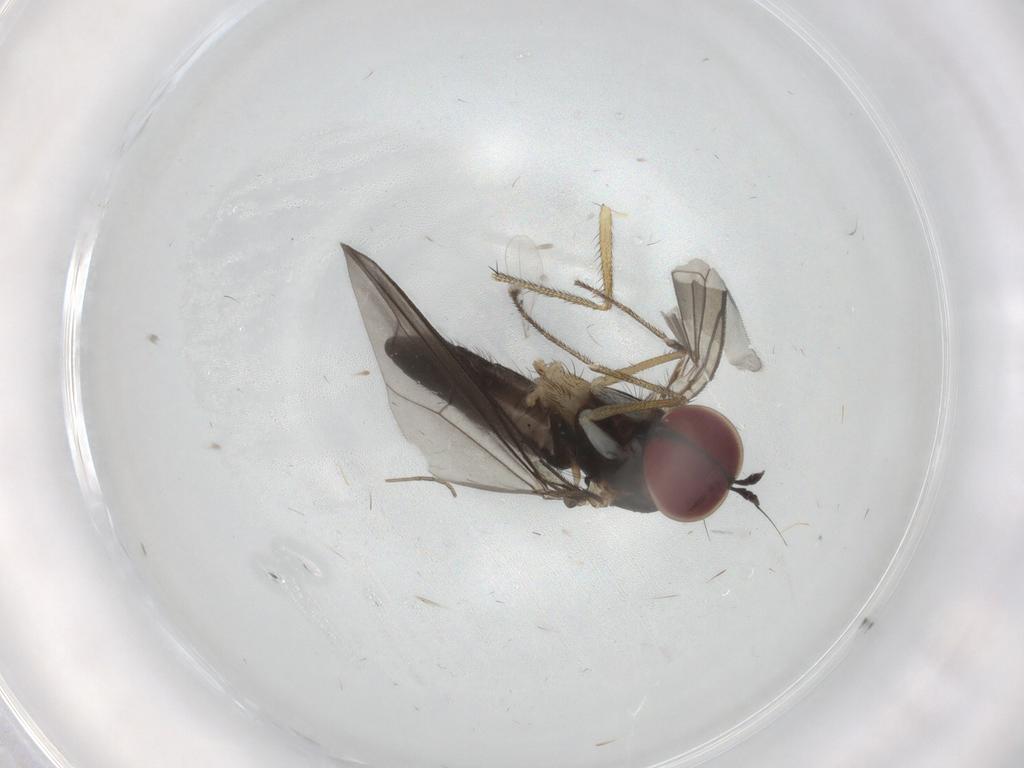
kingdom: Animalia
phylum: Arthropoda
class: Insecta
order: Diptera
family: Dolichopodidae
